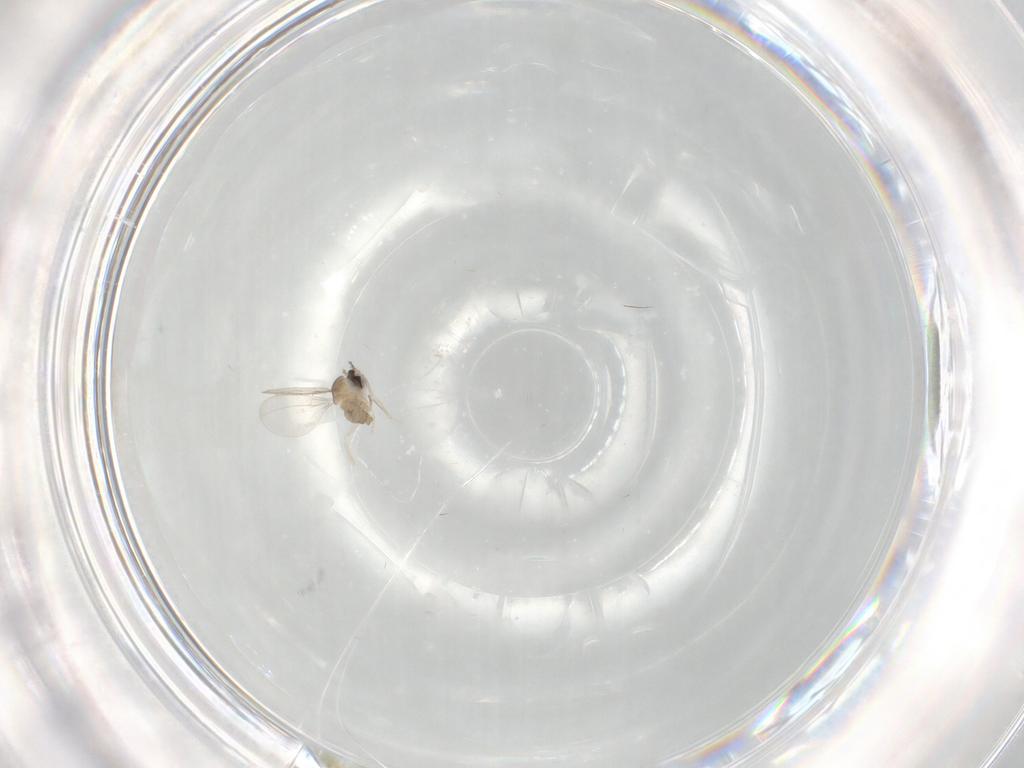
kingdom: Animalia
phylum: Arthropoda
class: Insecta
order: Diptera
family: Cecidomyiidae
